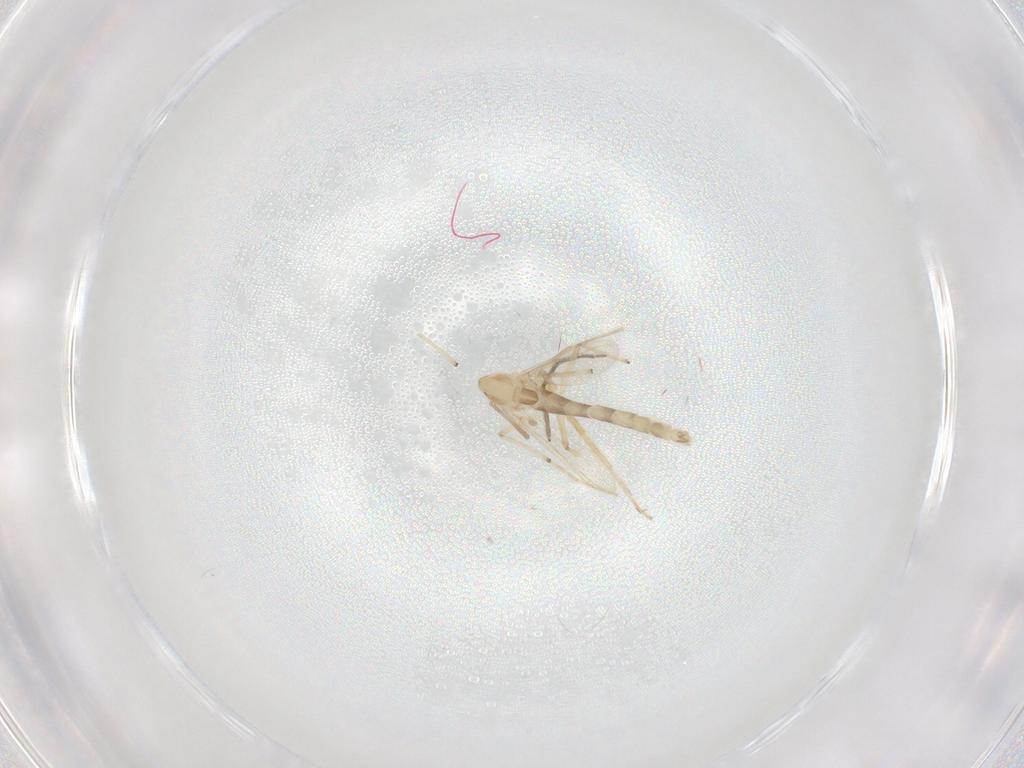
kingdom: Animalia
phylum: Arthropoda
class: Insecta
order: Diptera
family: Chironomidae
